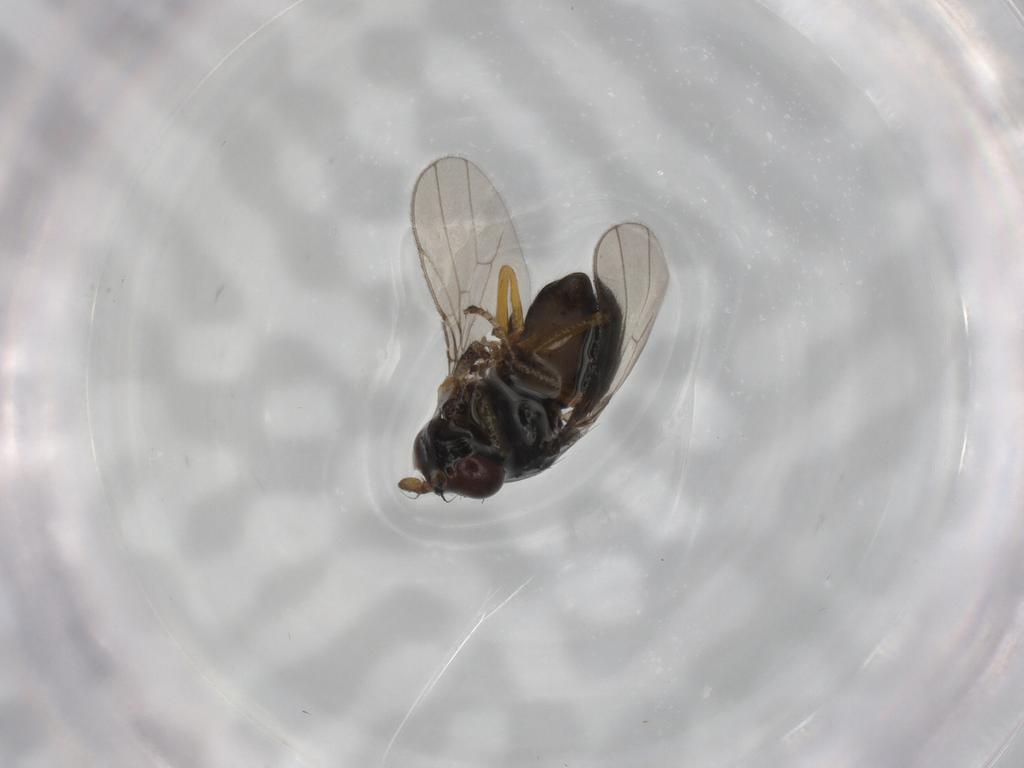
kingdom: Animalia
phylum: Arthropoda
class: Insecta
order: Diptera
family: Ephydridae
